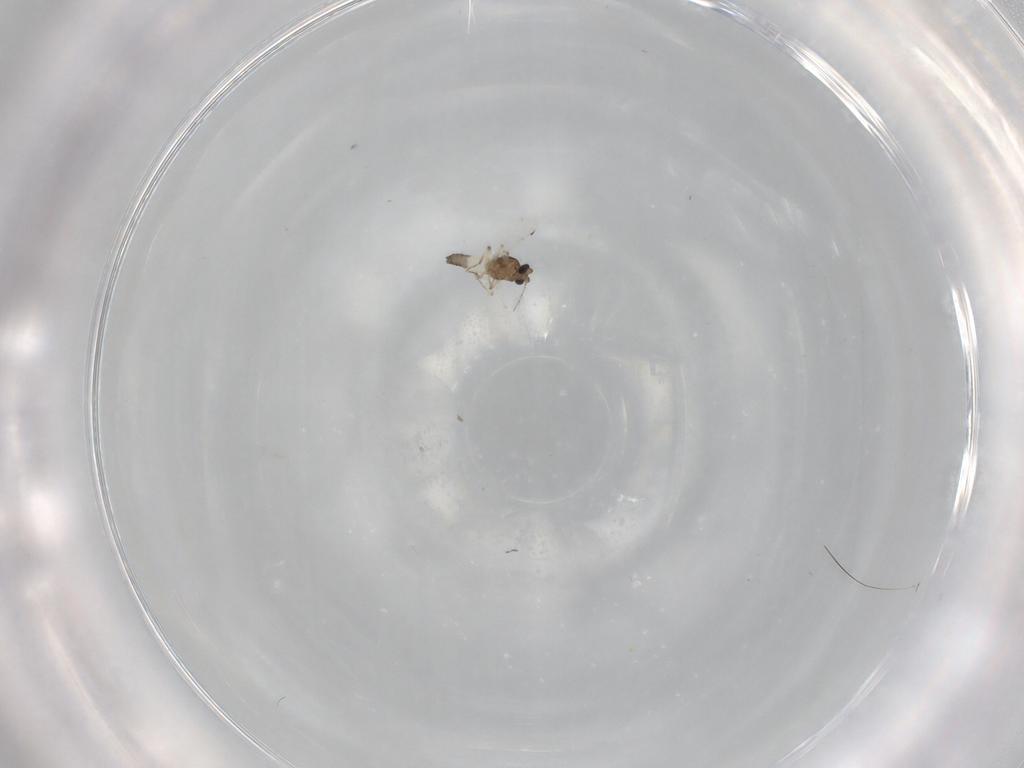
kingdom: Animalia
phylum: Arthropoda
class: Insecta
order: Diptera
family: Ceratopogonidae
